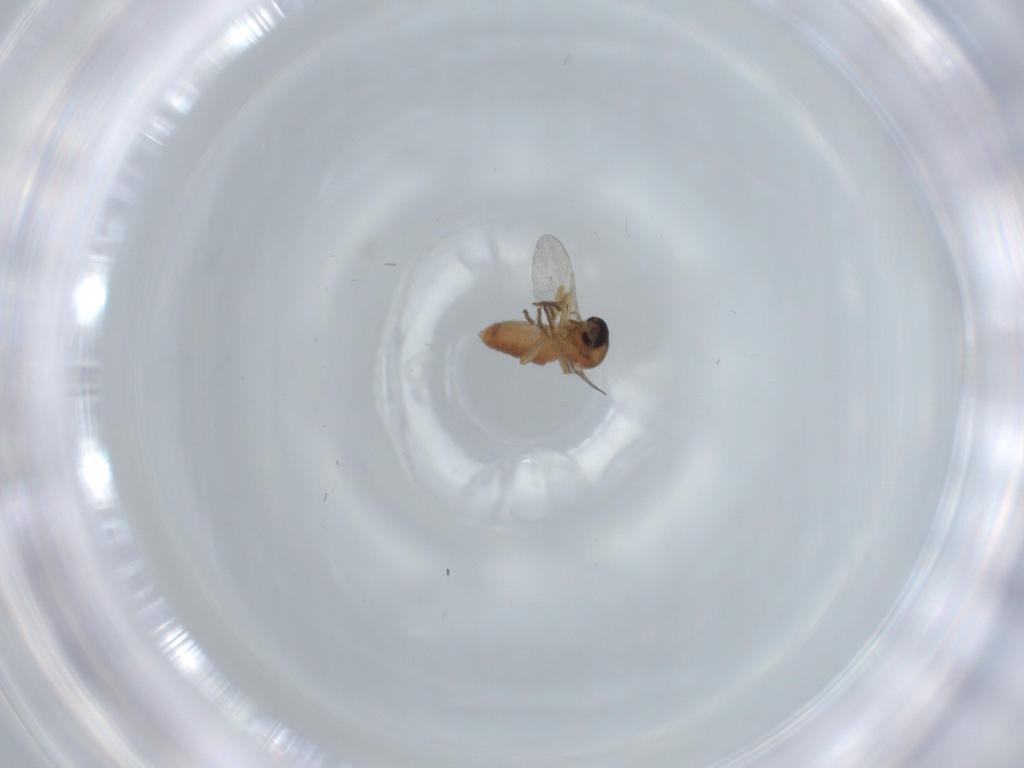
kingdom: Animalia
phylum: Arthropoda
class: Insecta
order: Diptera
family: Ceratopogonidae
